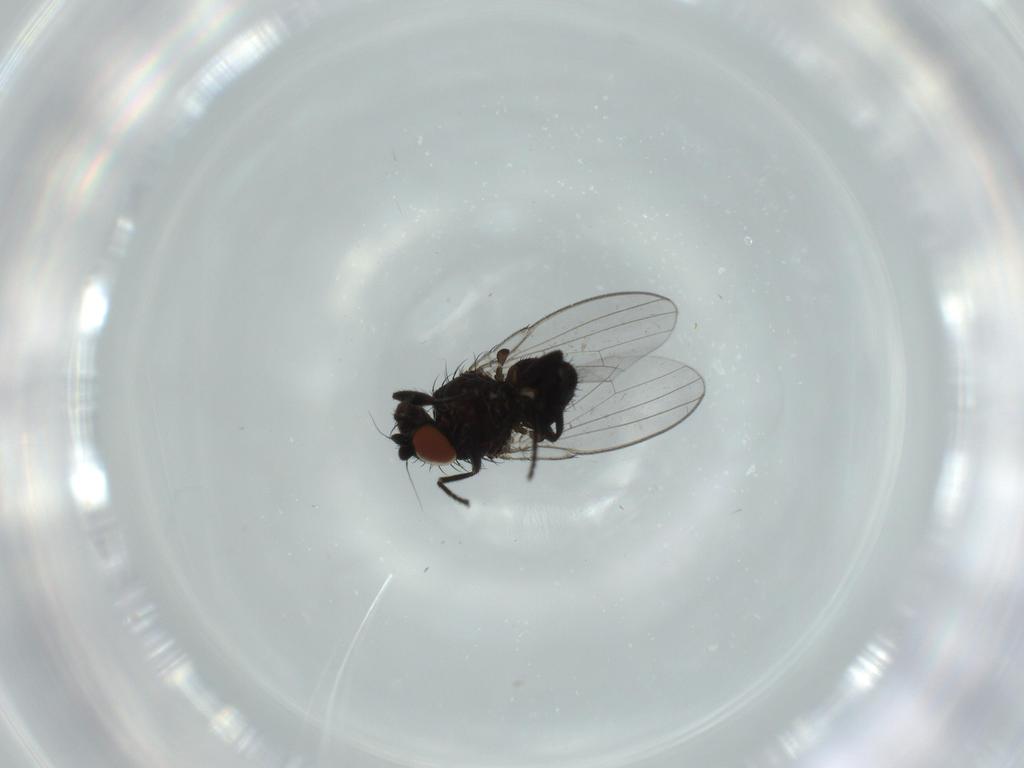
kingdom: Animalia
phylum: Arthropoda
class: Insecta
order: Diptera
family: Milichiidae
